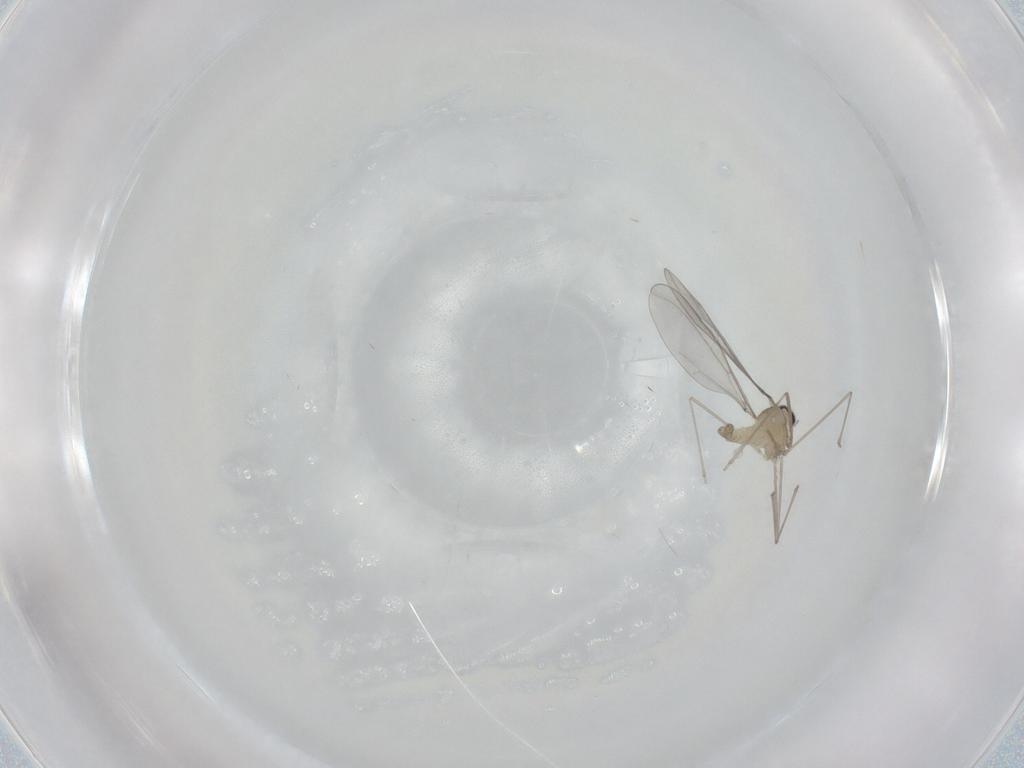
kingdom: Animalia
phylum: Arthropoda
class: Insecta
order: Diptera
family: Cecidomyiidae
